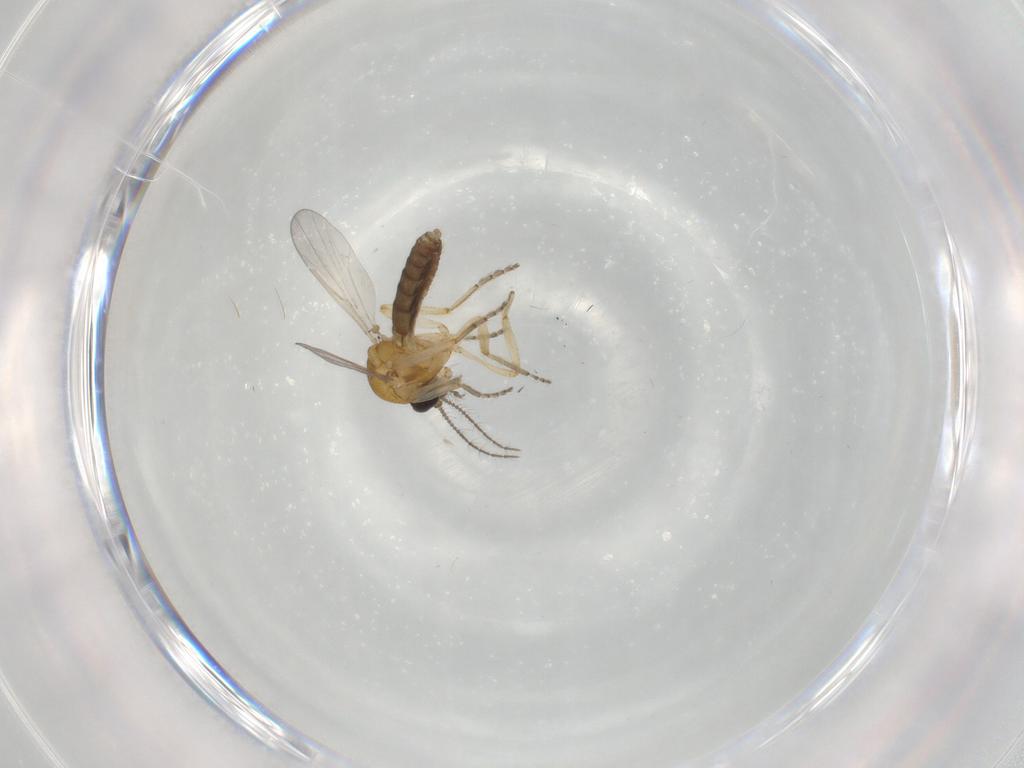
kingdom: Animalia
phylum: Arthropoda
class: Insecta
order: Diptera
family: Ceratopogonidae
